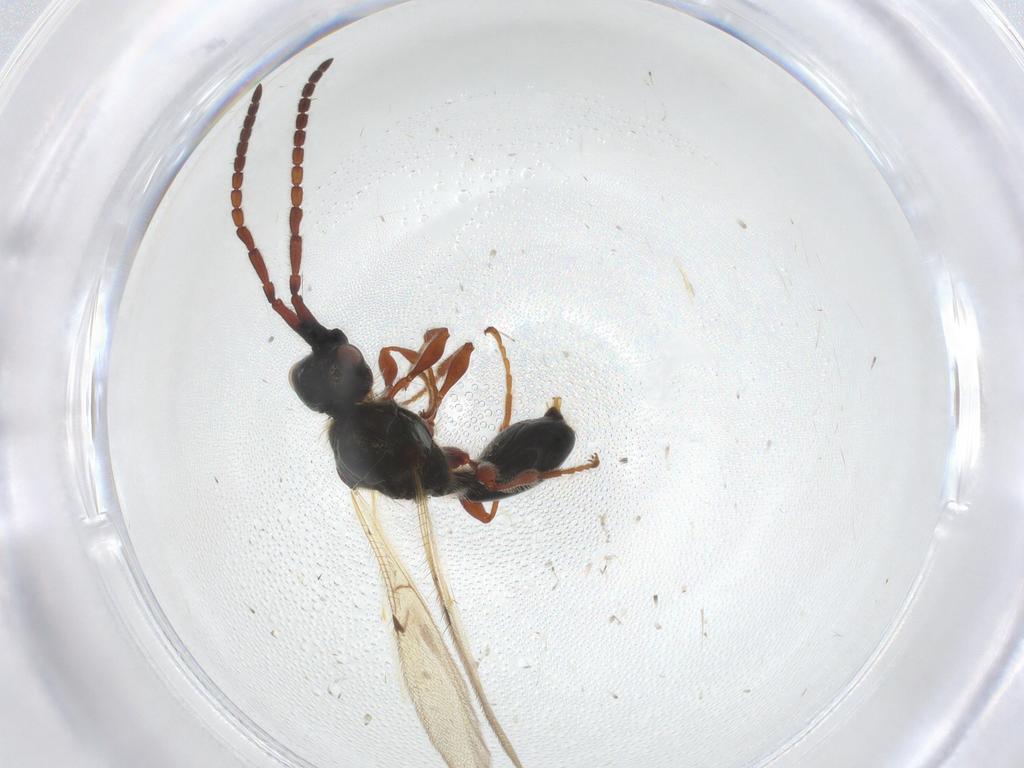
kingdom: Animalia
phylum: Arthropoda
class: Insecta
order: Hymenoptera
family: Diapriidae
